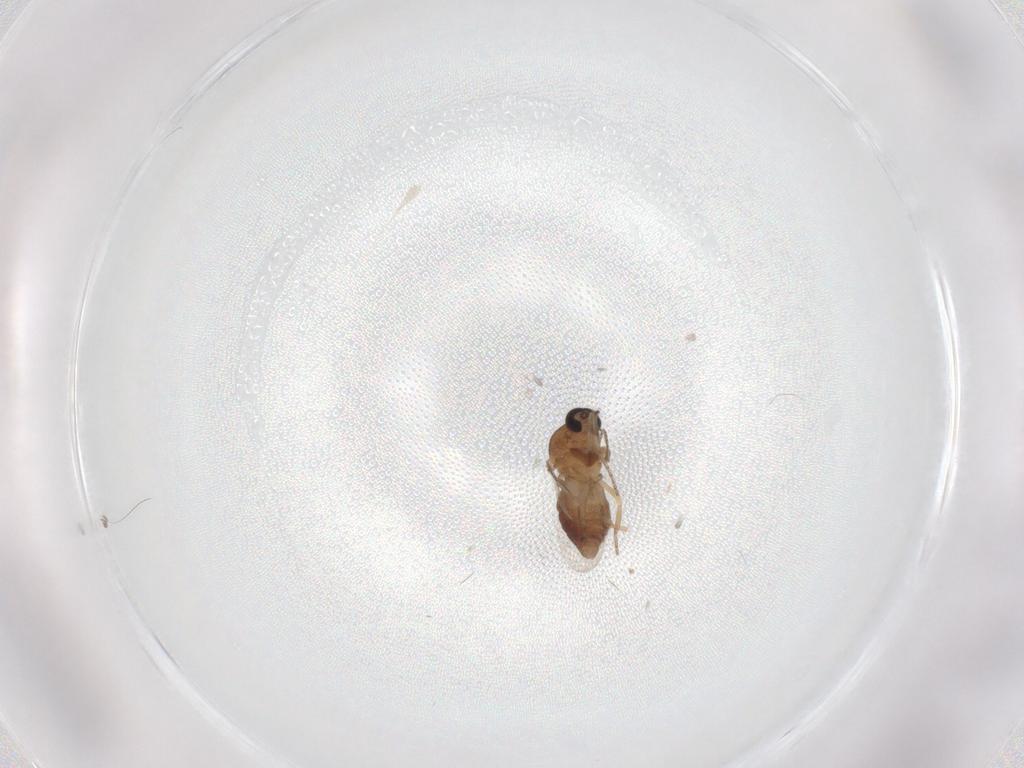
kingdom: Animalia
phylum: Arthropoda
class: Insecta
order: Diptera
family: Ceratopogonidae
